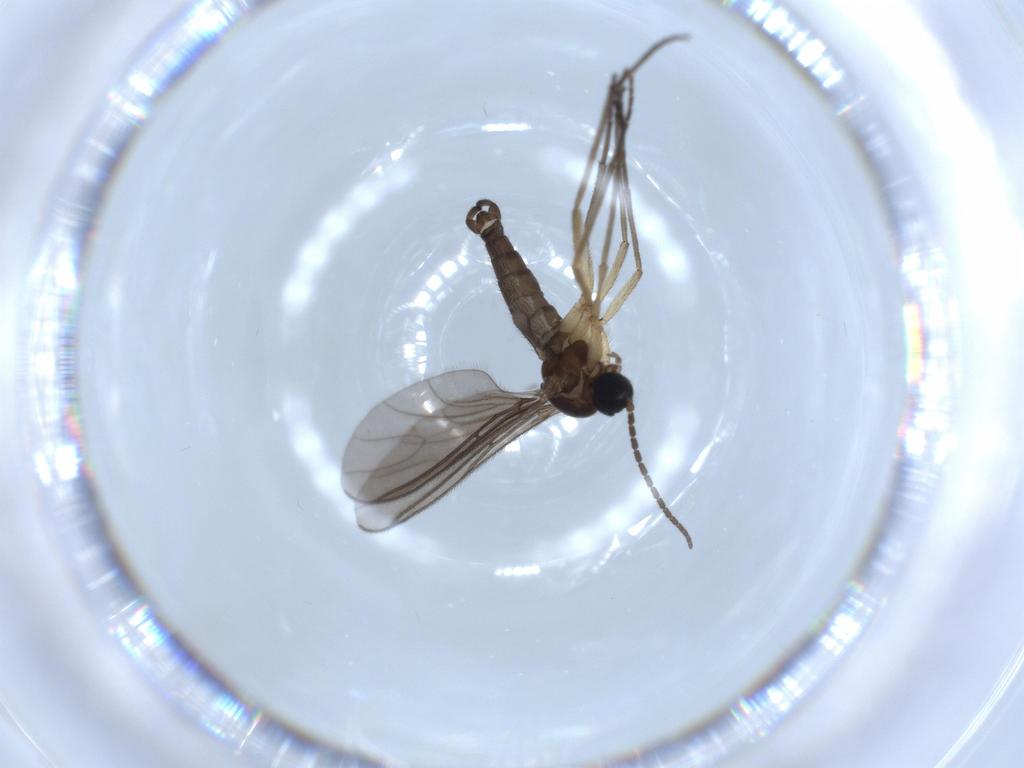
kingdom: Animalia
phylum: Arthropoda
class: Insecta
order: Diptera
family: Sciaridae
